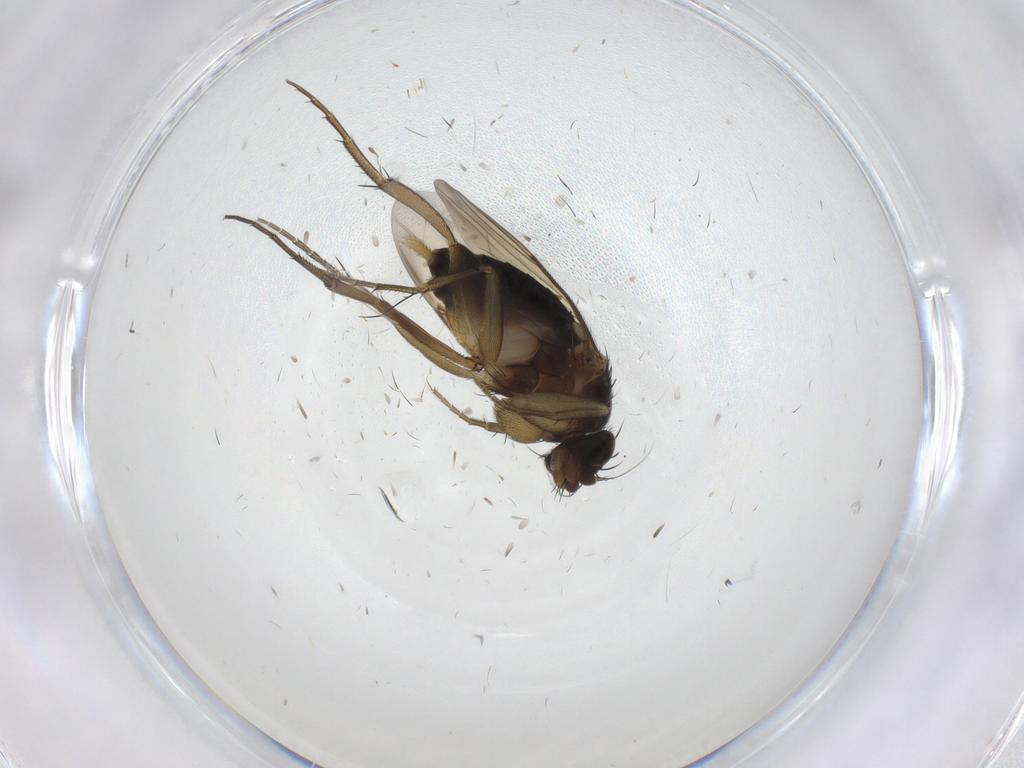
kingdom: Animalia
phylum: Arthropoda
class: Insecta
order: Diptera
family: Phoridae
